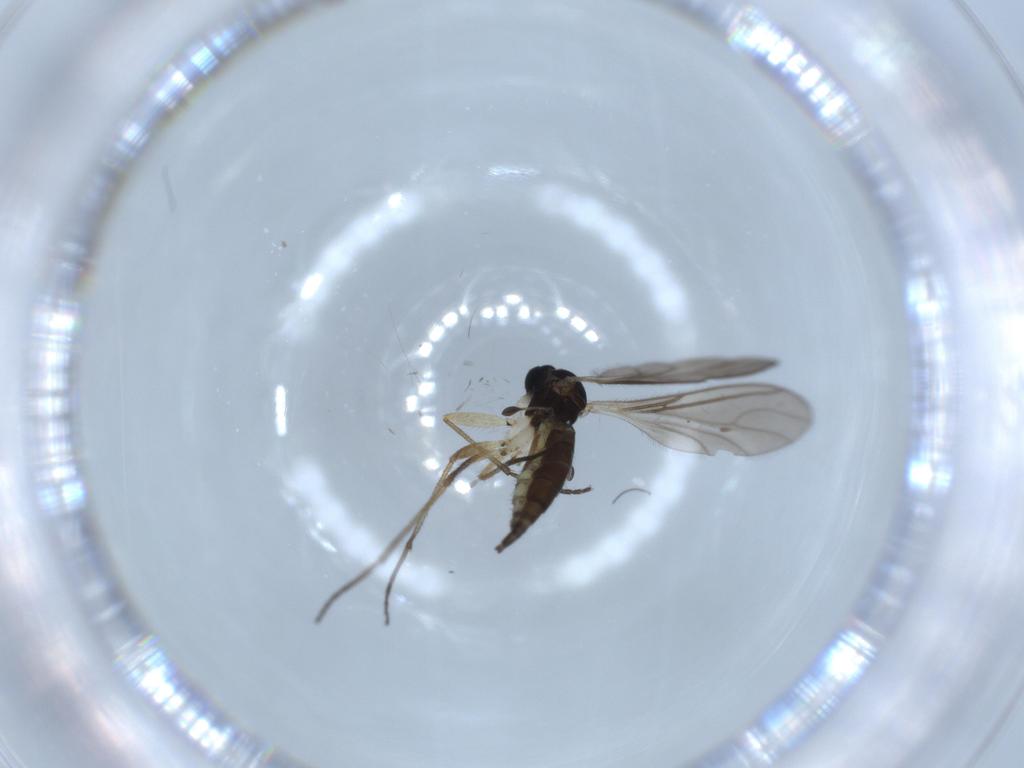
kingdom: Animalia
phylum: Arthropoda
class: Insecta
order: Diptera
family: Sciaridae
